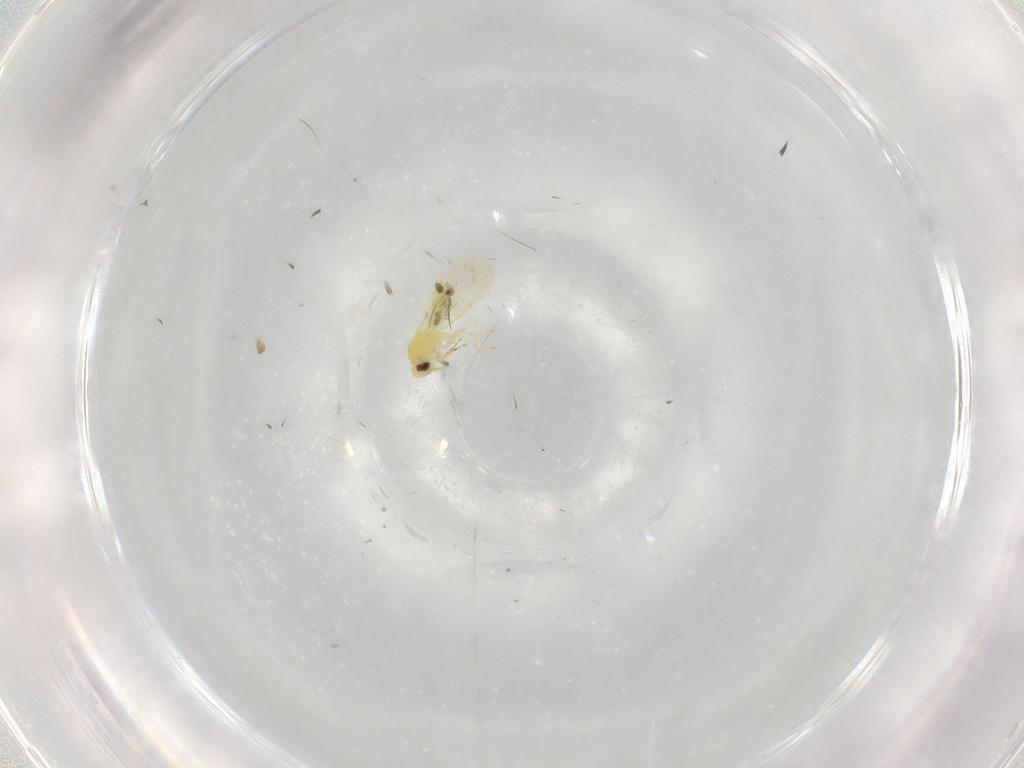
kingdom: Animalia
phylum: Arthropoda
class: Insecta
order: Hemiptera
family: Aleyrodidae
